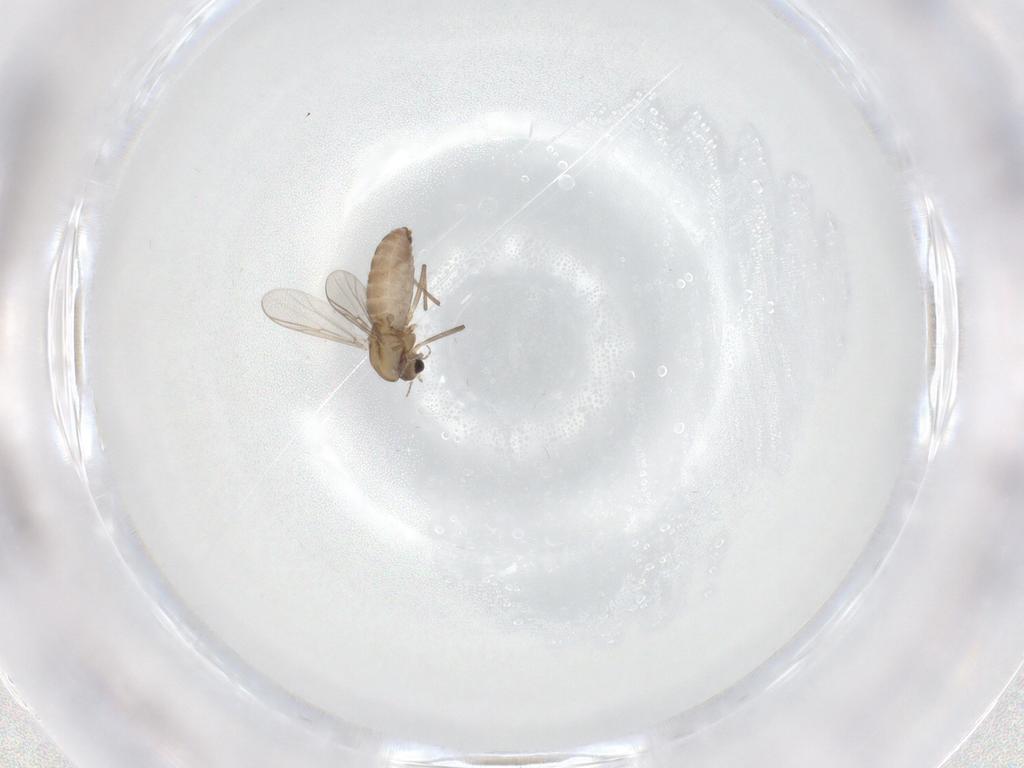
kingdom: Animalia
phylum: Arthropoda
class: Insecta
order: Diptera
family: Chironomidae
